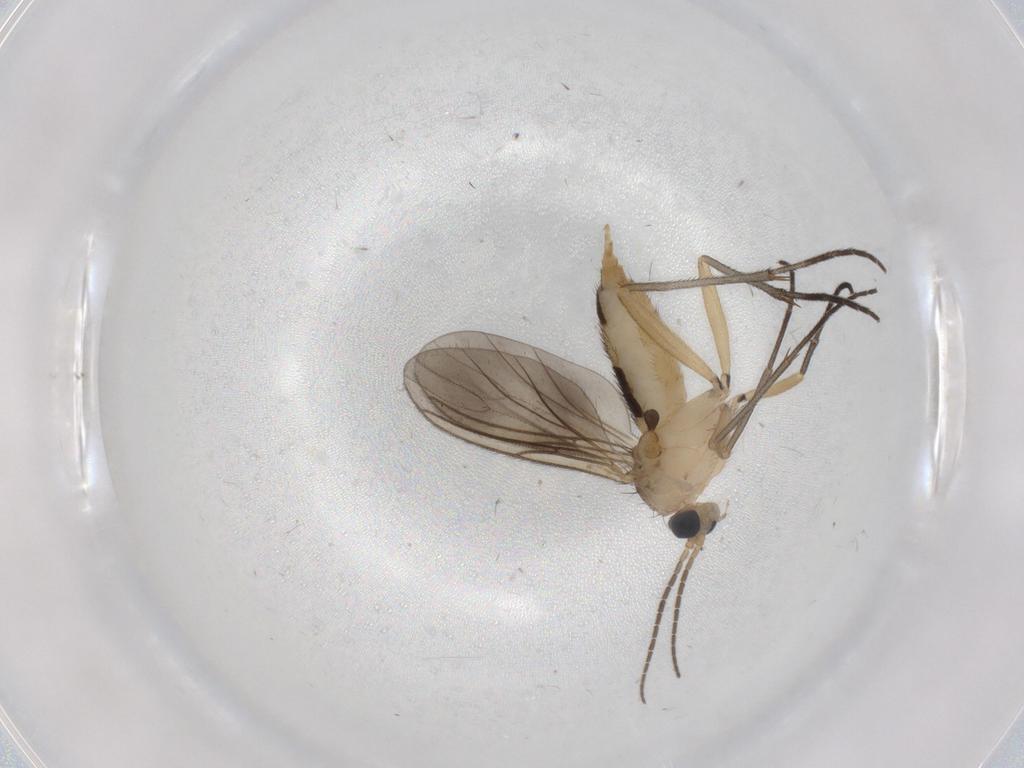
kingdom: Animalia
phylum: Arthropoda
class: Insecta
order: Diptera
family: Sciaridae
